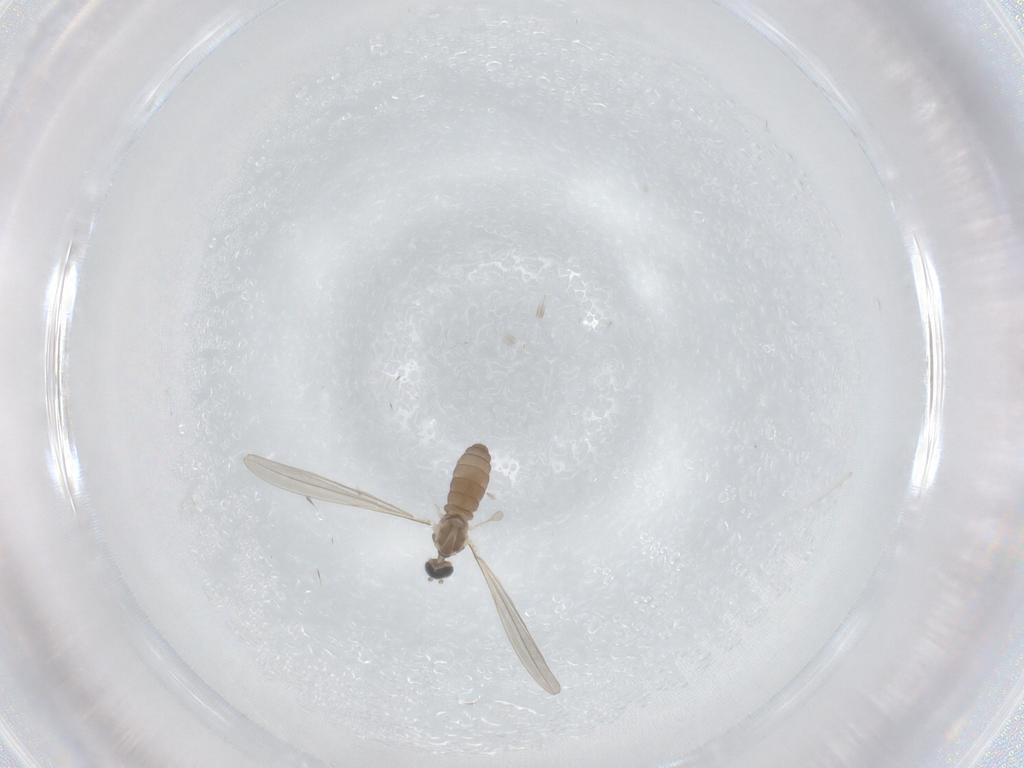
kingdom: Animalia
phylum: Arthropoda
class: Insecta
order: Diptera
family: Cecidomyiidae
